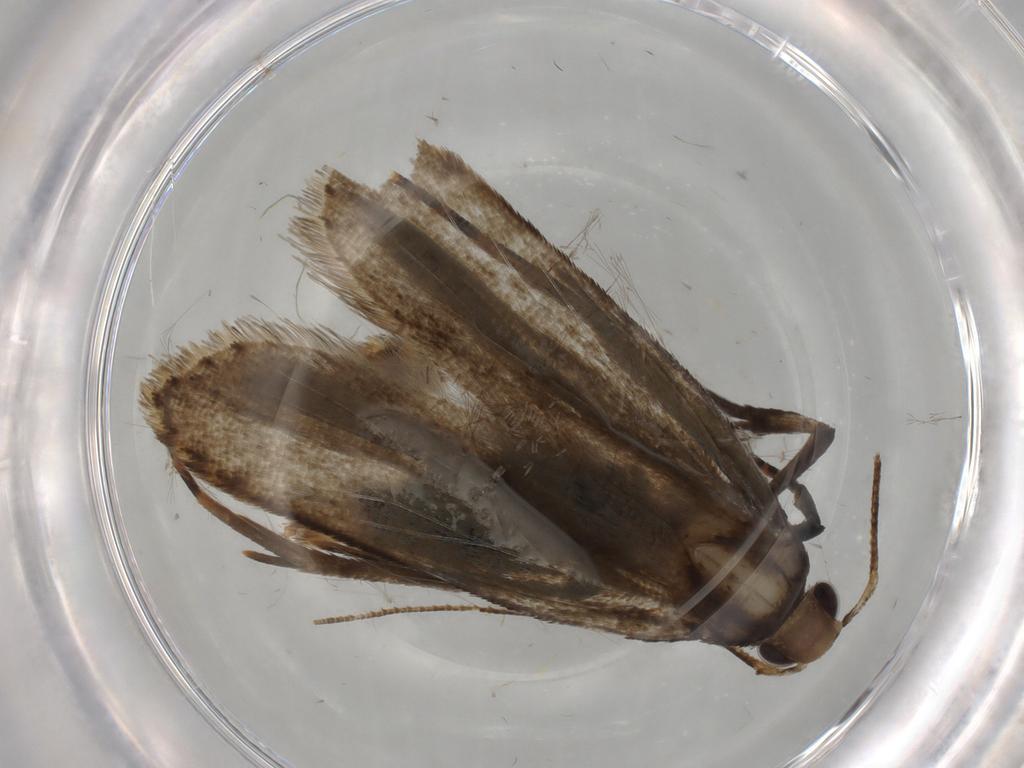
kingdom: Animalia
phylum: Arthropoda
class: Insecta
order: Lepidoptera
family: Cosmopterigidae
